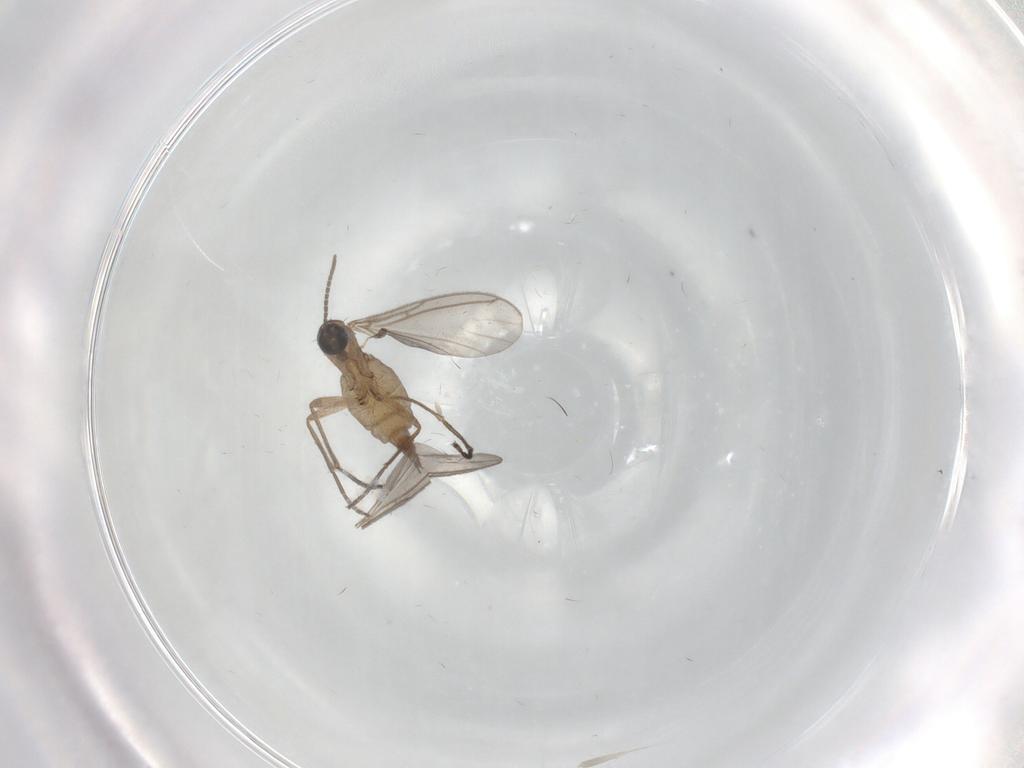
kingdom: Animalia
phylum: Arthropoda
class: Insecta
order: Diptera
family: Sciaridae
